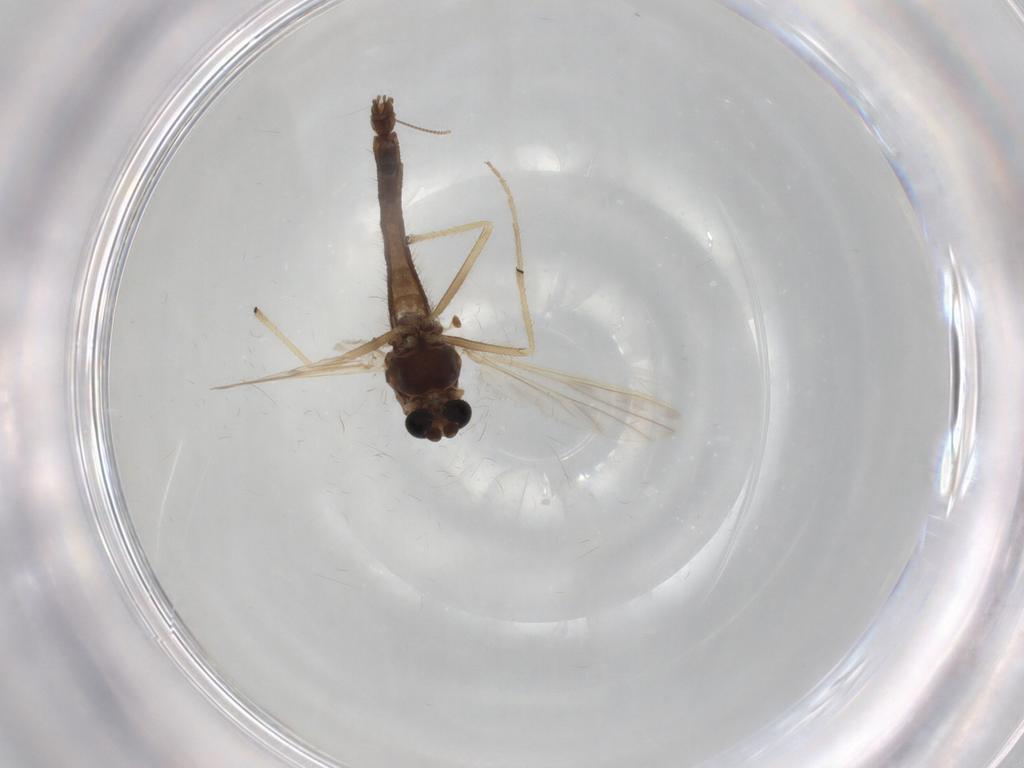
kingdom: Animalia
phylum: Arthropoda
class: Insecta
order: Diptera
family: Chironomidae
